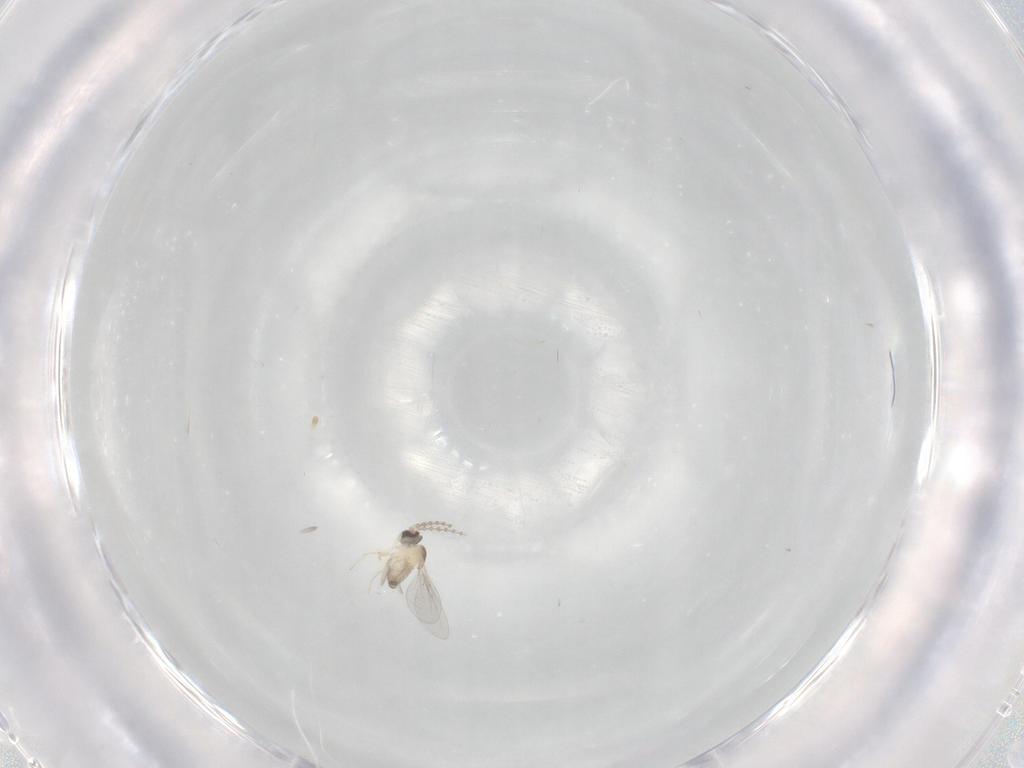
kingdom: Animalia
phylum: Arthropoda
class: Insecta
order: Diptera
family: Cecidomyiidae
